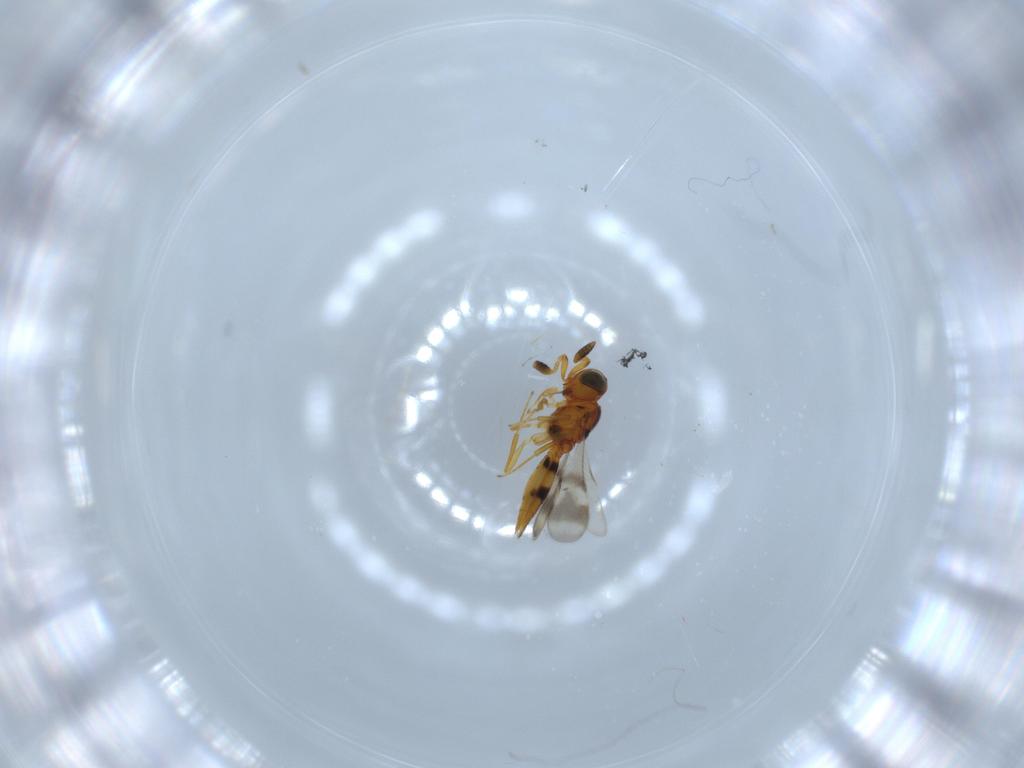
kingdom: Animalia
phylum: Arthropoda
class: Insecta
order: Hymenoptera
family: Scelionidae
